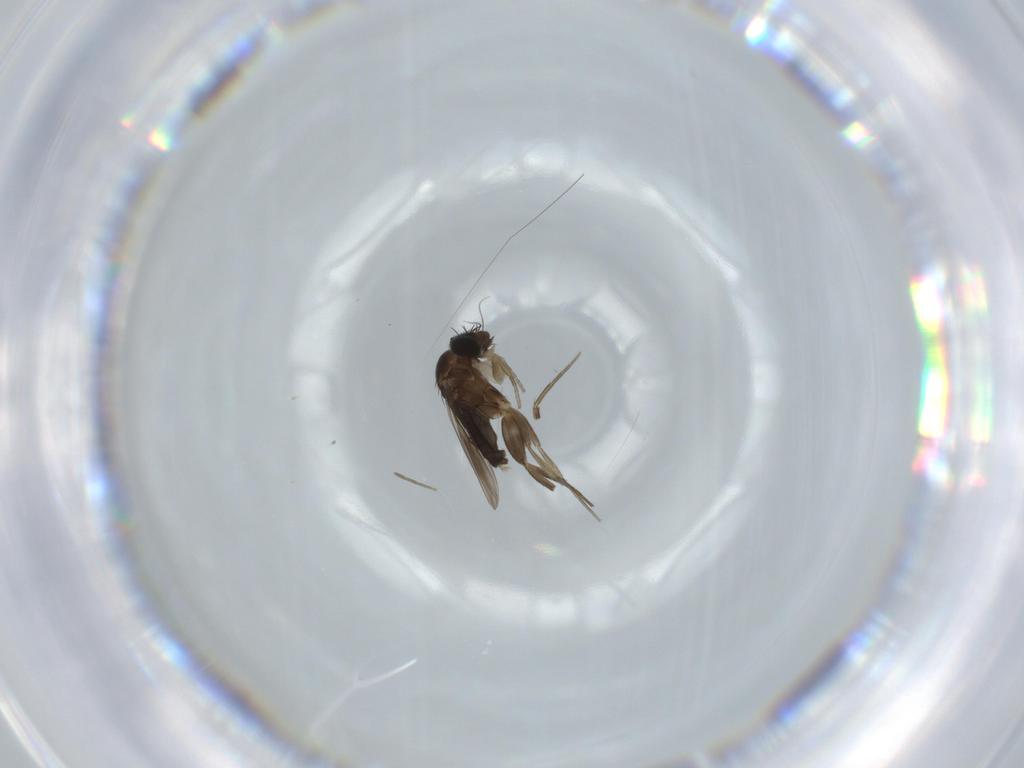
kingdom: Animalia
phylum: Arthropoda
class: Insecta
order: Diptera
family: Phoridae
